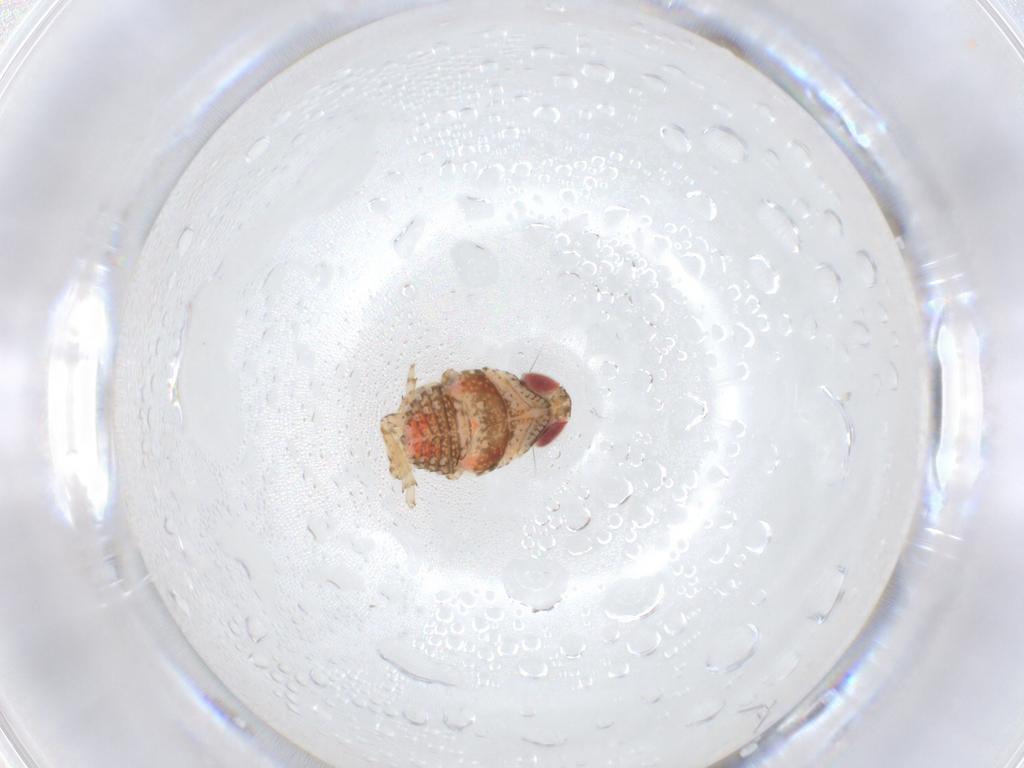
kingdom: Animalia
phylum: Arthropoda
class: Insecta
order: Hemiptera
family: Issidae
